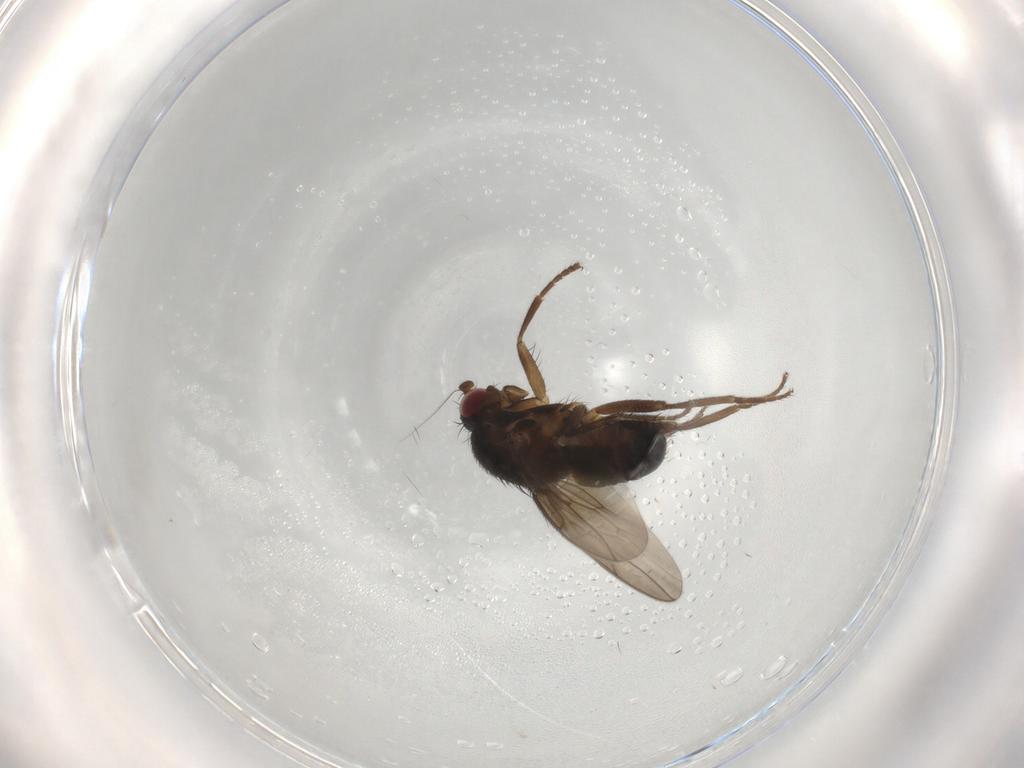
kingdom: Animalia
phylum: Arthropoda
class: Insecta
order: Diptera
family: Sphaeroceridae
